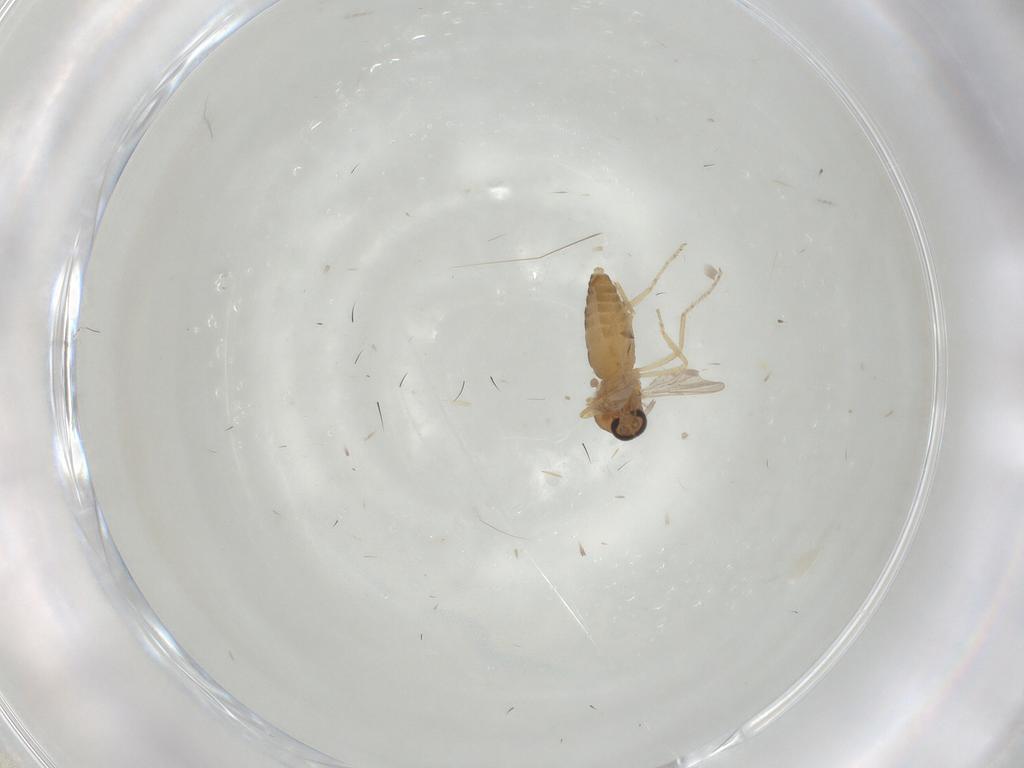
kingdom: Animalia
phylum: Arthropoda
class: Insecta
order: Diptera
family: Ceratopogonidae
